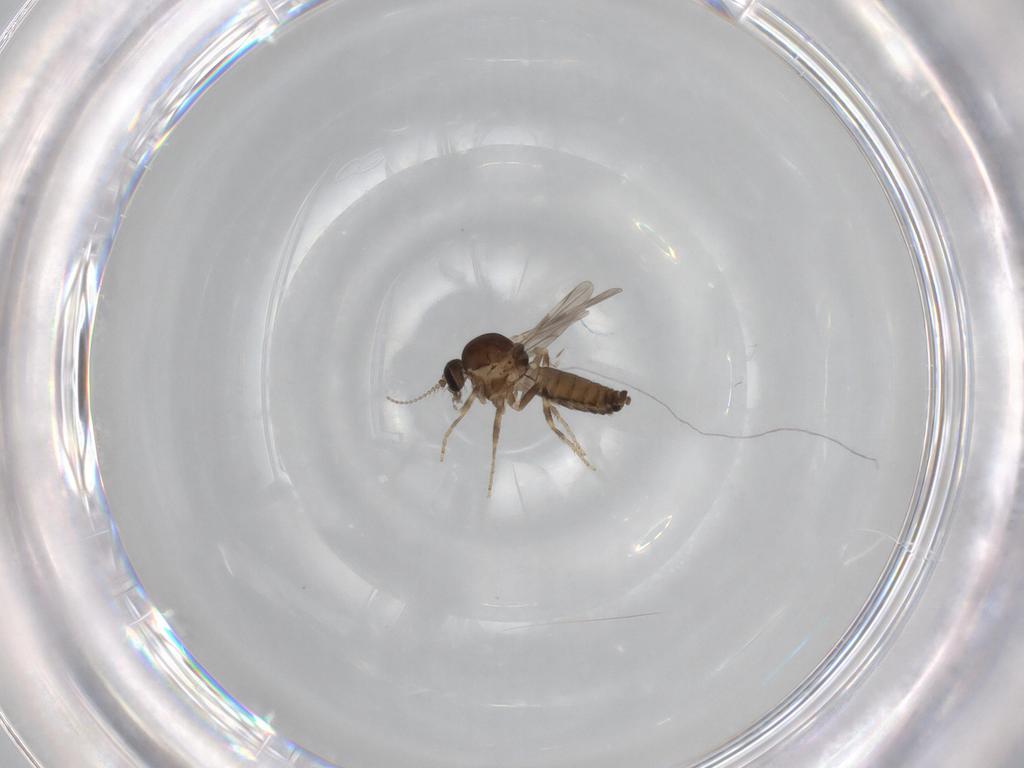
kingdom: Animalia
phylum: Arthropoda
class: Insecta
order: Diptera
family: Ceratopogonidae
